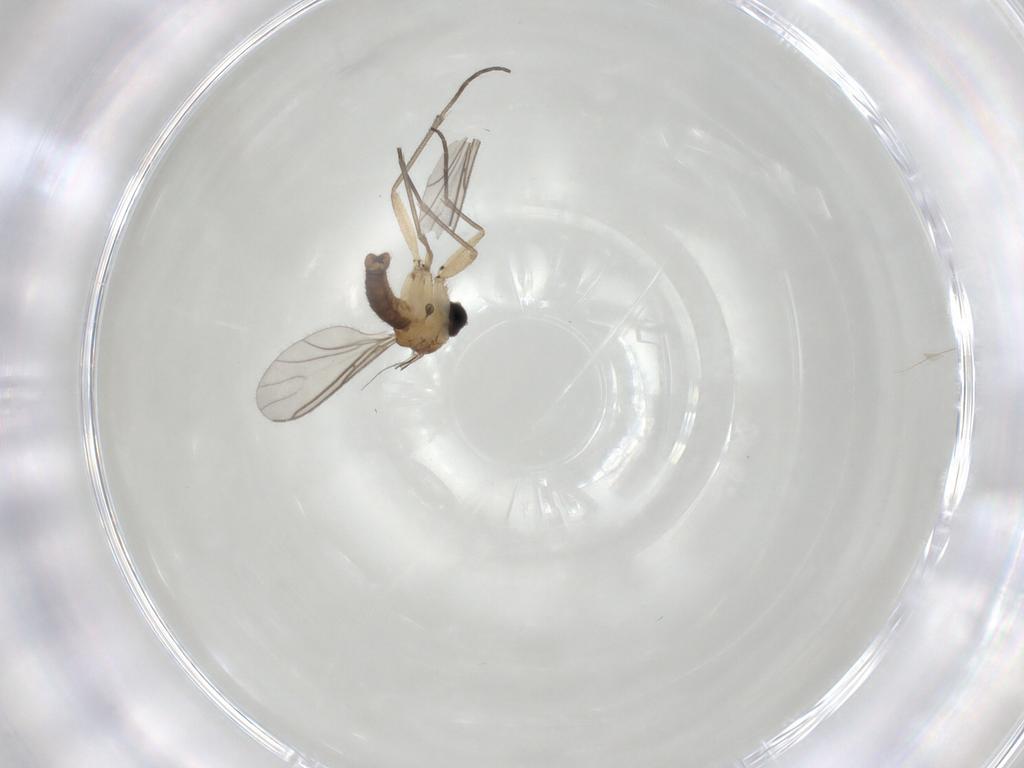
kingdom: Animalia
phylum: Arthropoda
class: Insecta
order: Diptera
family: Sciaridae
